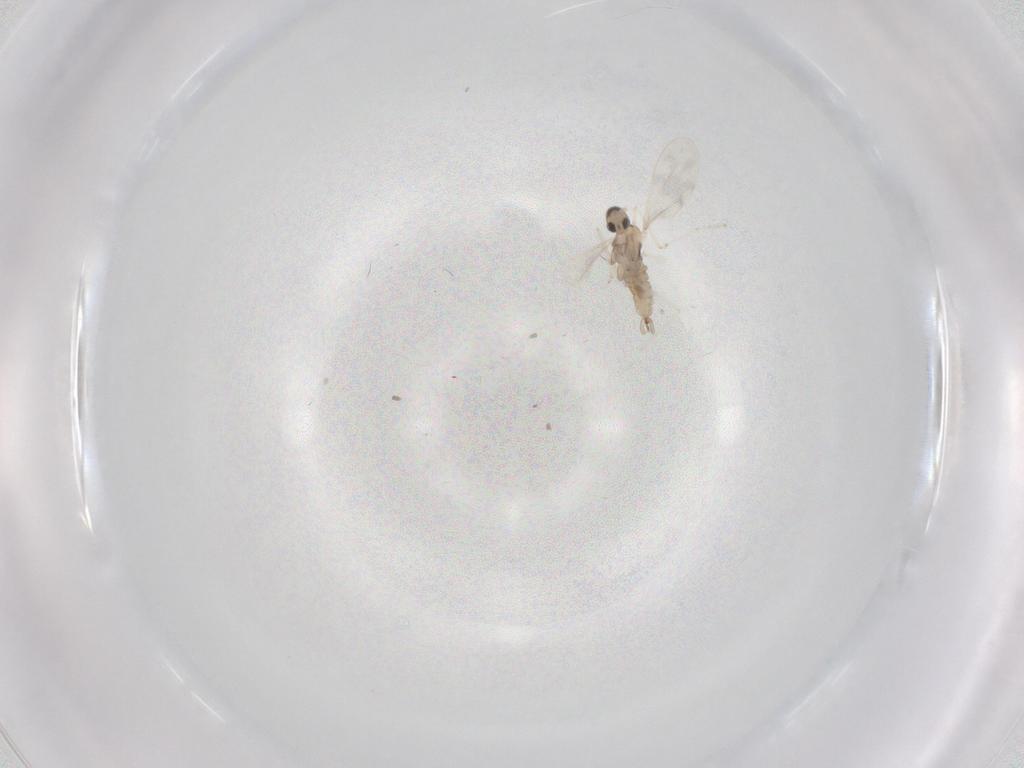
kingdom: Animalia
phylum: Arthropoda
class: Insecta
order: Diptera
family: Cecidomyiidae
